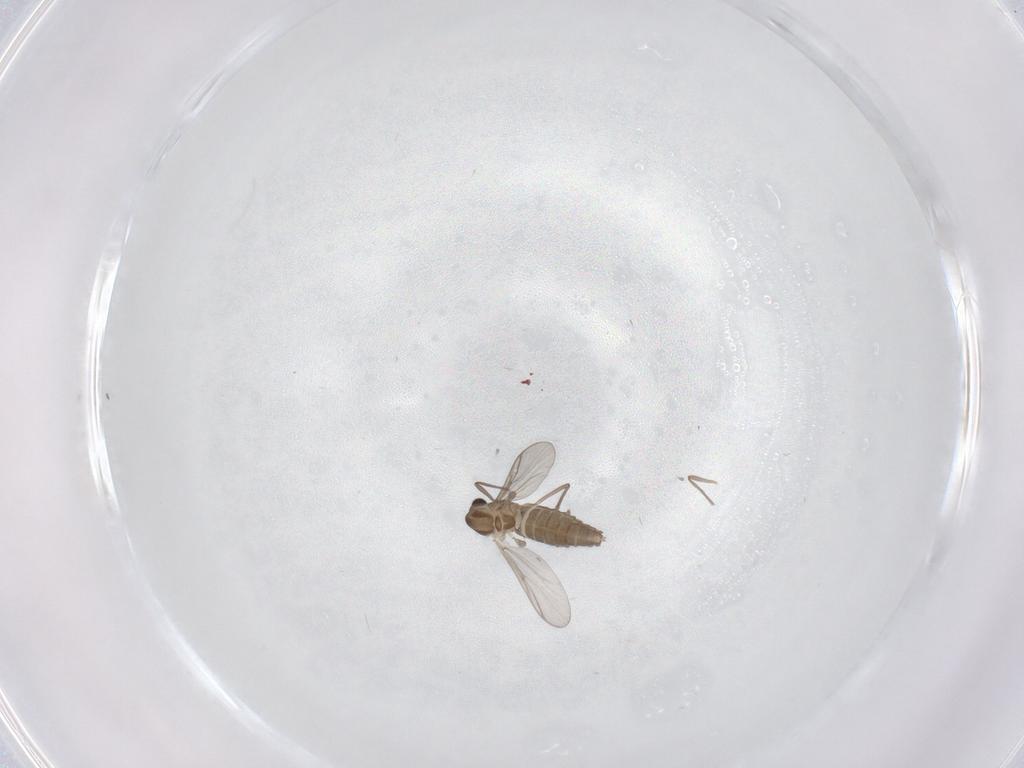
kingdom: Animalia
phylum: Arthropoda
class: Insecta
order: Diptera
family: Chironomidae
